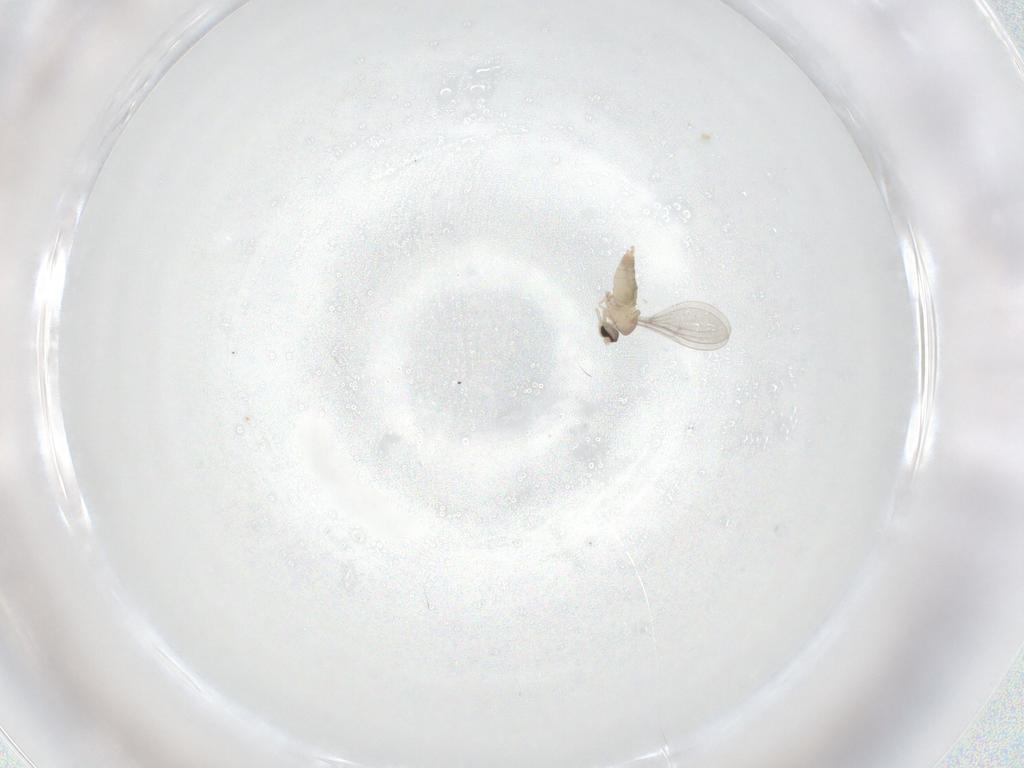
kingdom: Animalia
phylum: Arthropoda
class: Insecta
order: Diptera
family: Cecidomyiidae
